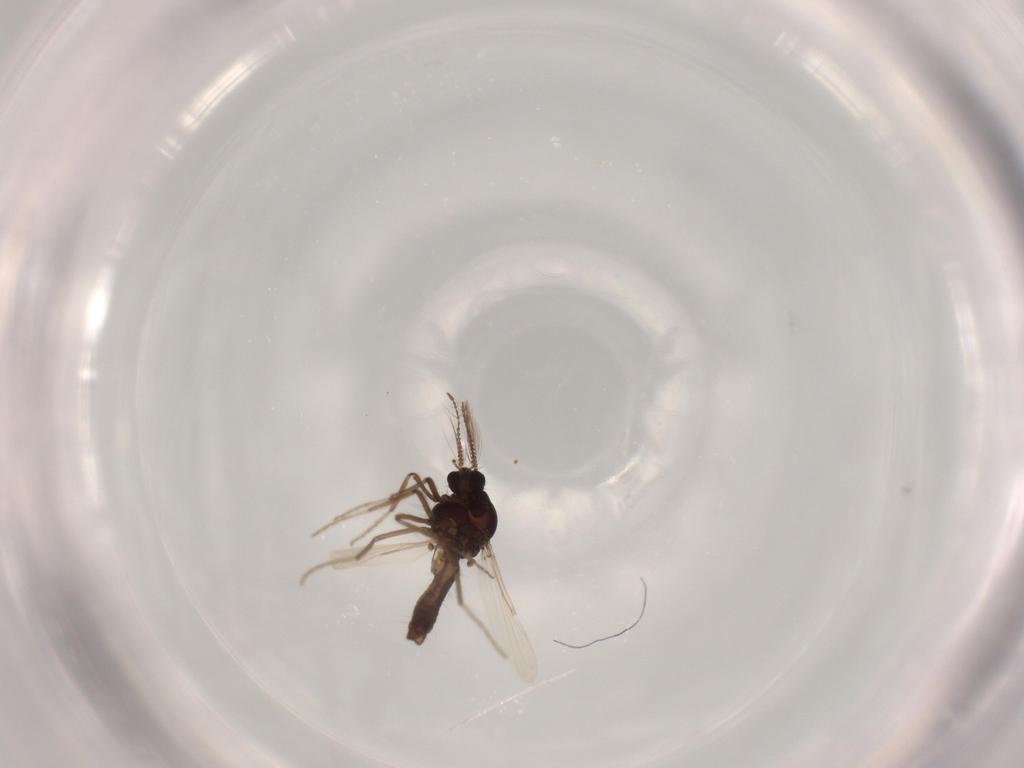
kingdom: Animalia
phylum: Arthropoda
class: Insecta
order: Diptera
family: Chironomidae
